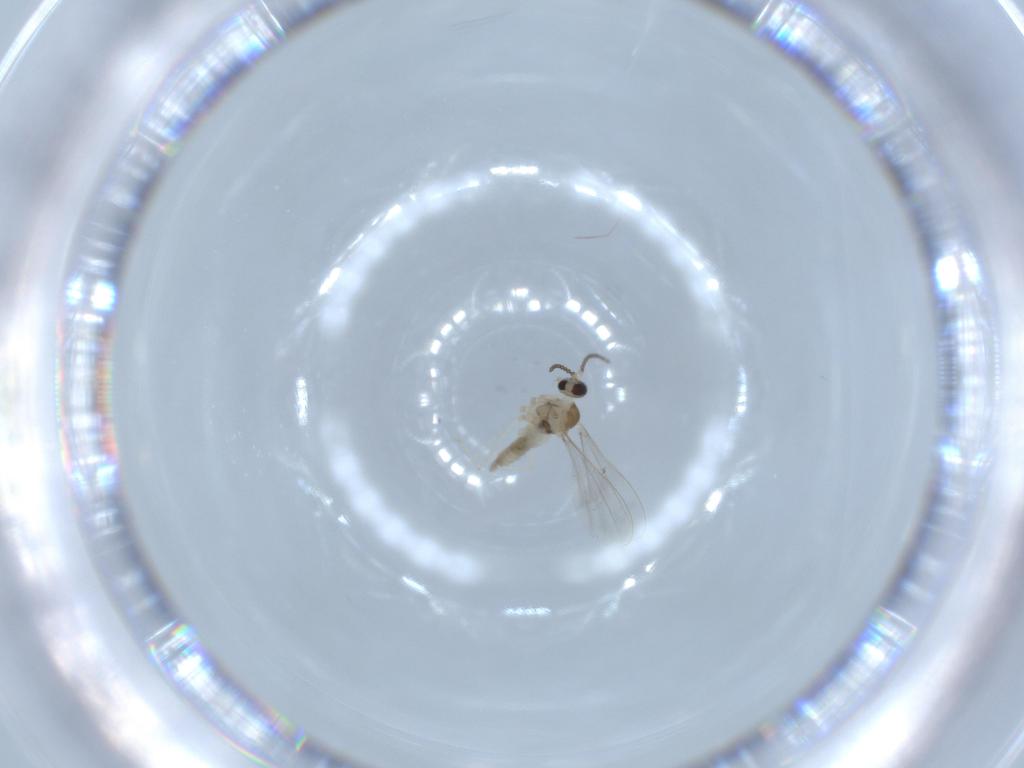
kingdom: Animalia
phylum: Arthropoda
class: Insecta
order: Diptera
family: Cecidomyiidae
